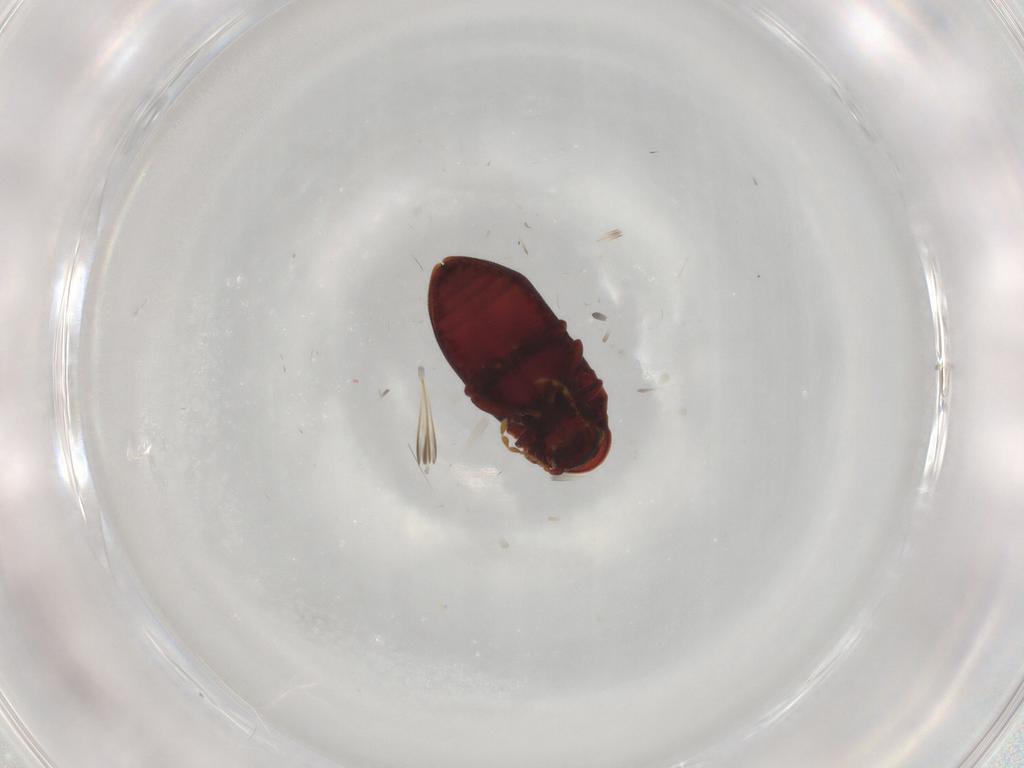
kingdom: Animalia
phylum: Arthropoda
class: Insecta
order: Coleoptera
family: Ptinidae
